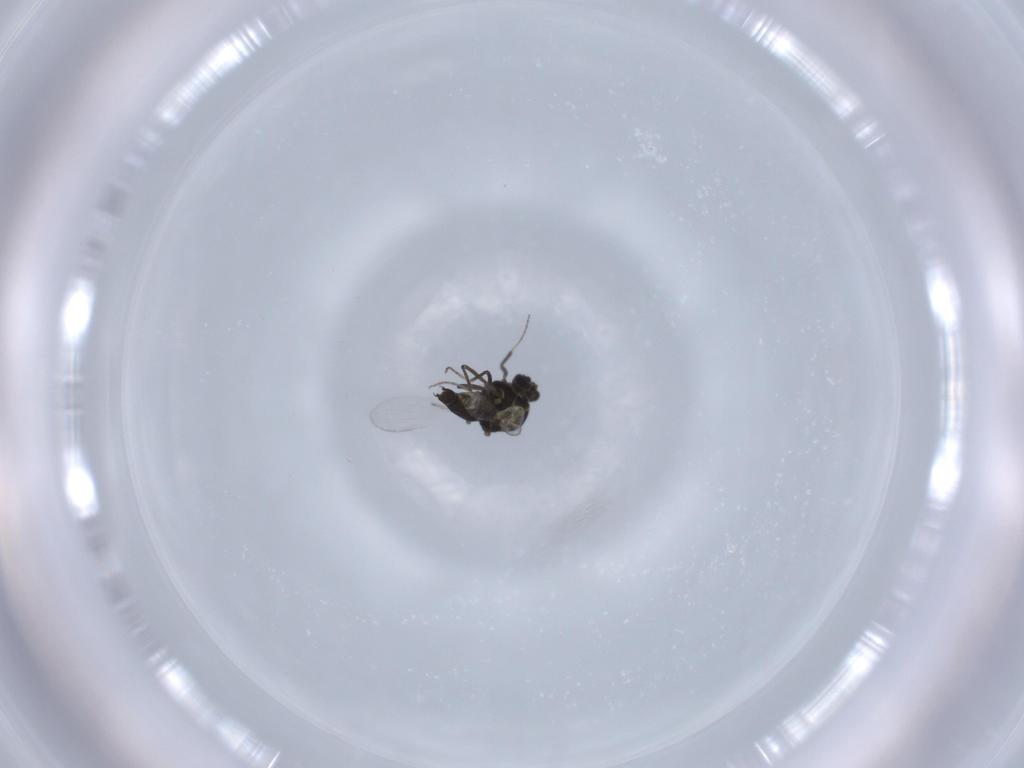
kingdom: Animalia
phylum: Arthropoda
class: Insecta
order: Diptera
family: Ceratopogonidae
